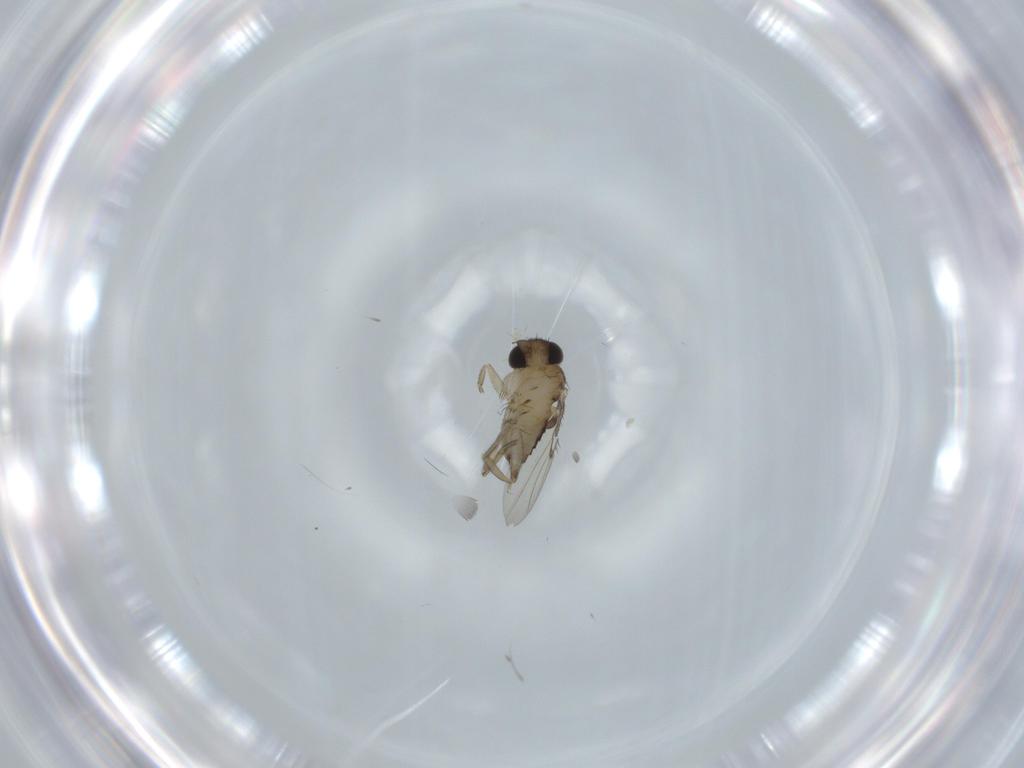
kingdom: Animalia
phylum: Arthropoda
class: Insecta
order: Diptera
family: Phoridae
